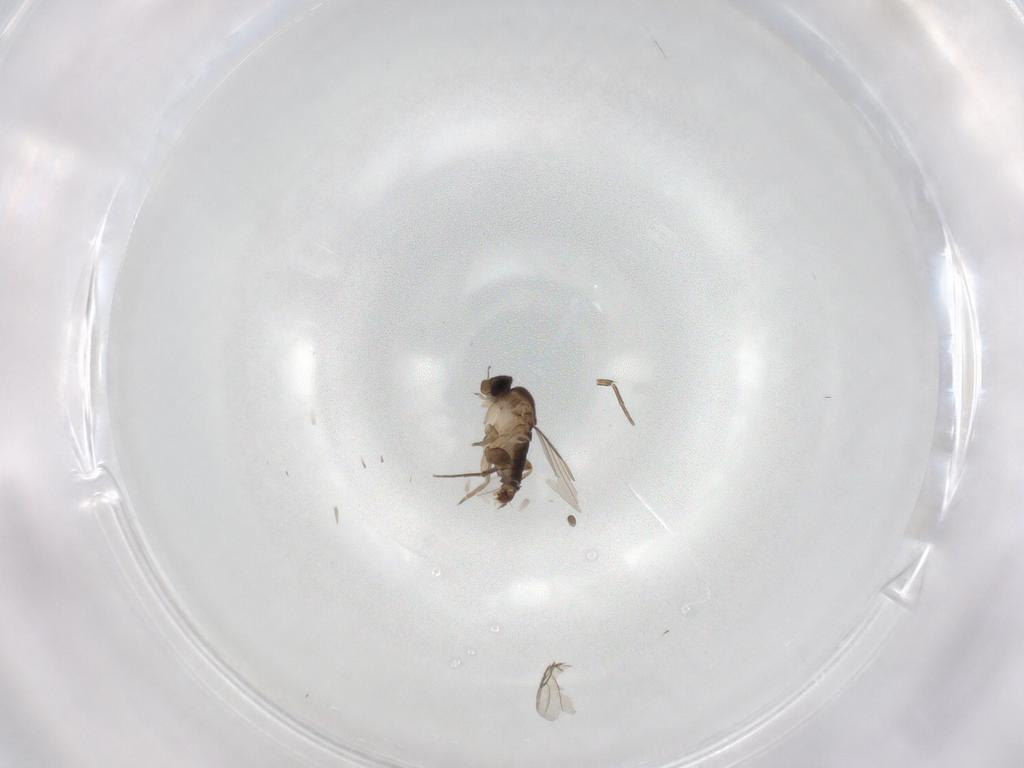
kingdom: Animalia
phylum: Arthropoda
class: Insecta
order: Diptera
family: Phoridae
